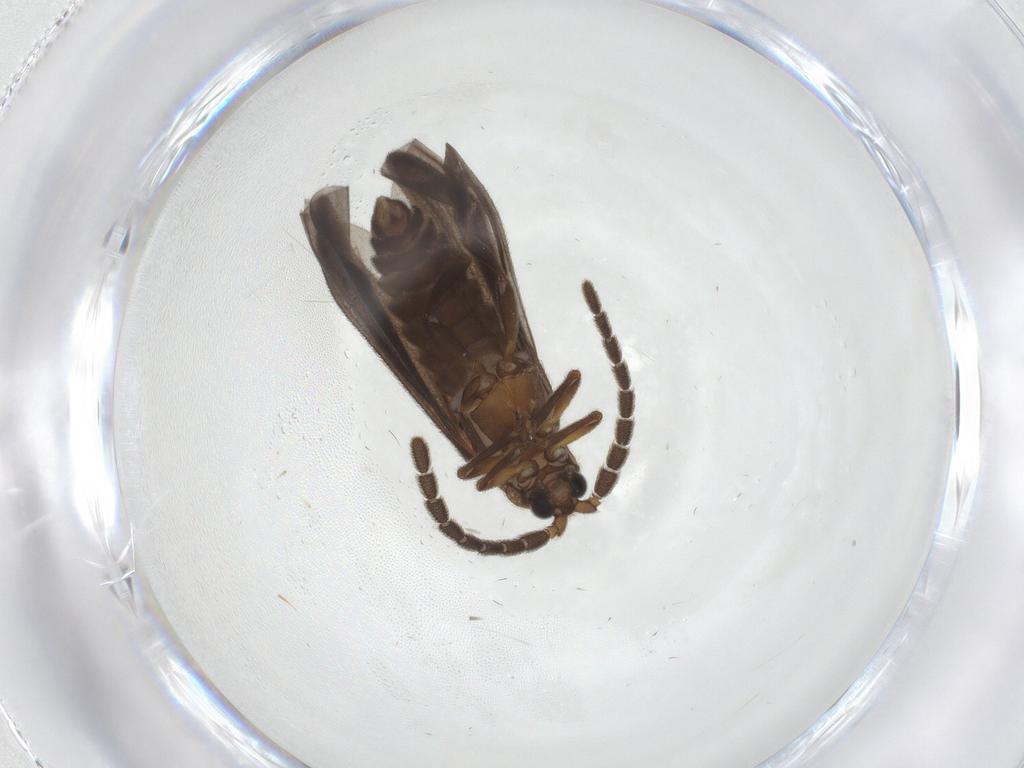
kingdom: Animalia
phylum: Arthropoda
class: Insecta
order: Coleoptera
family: Lycidae
